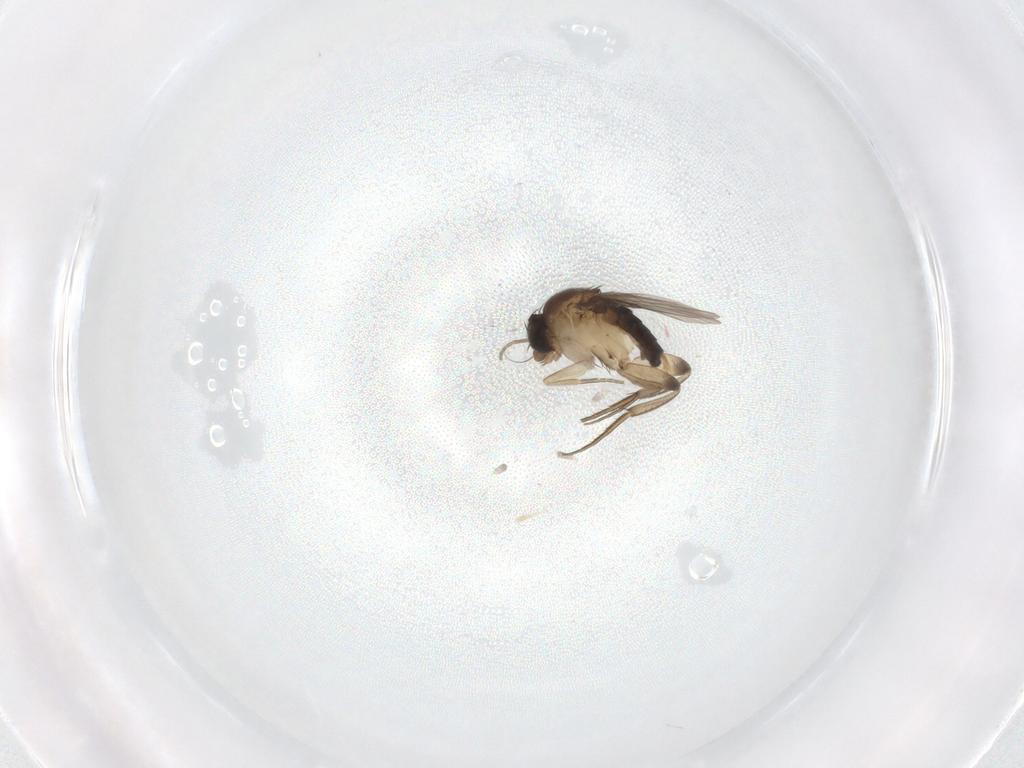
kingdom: Animalia
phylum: Arthropoda
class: Insecta
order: Diptera
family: Phoridae
